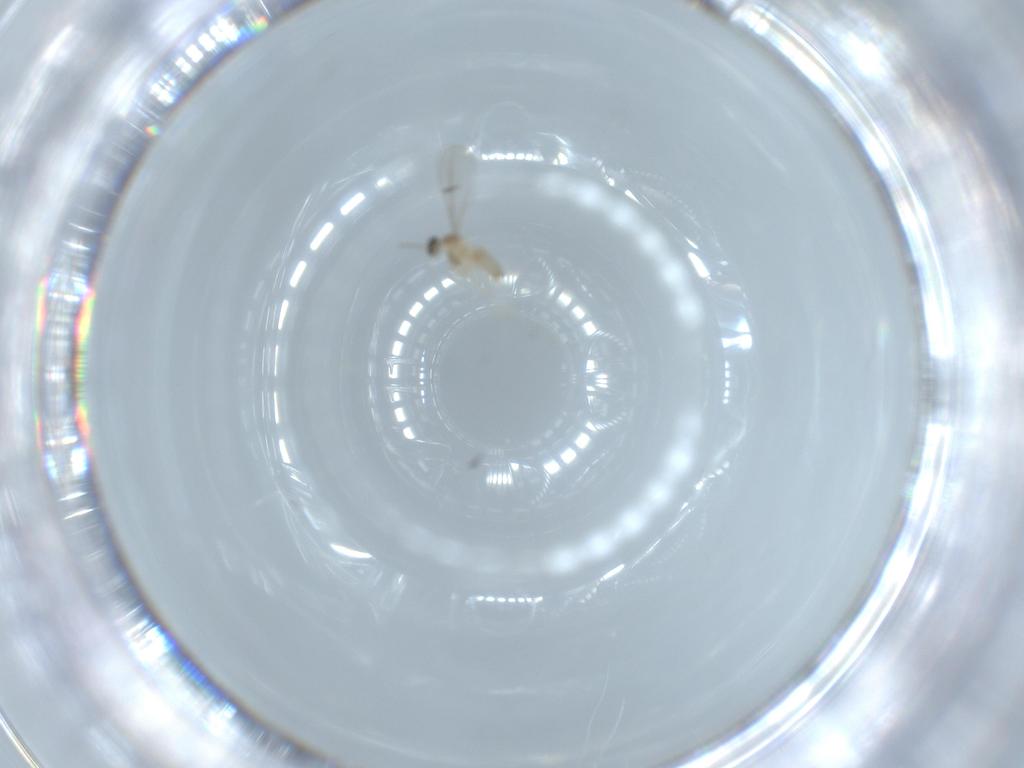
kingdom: Animalia
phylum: Arthropoda
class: Insecta
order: Diptera
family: Cecidomyiidae
